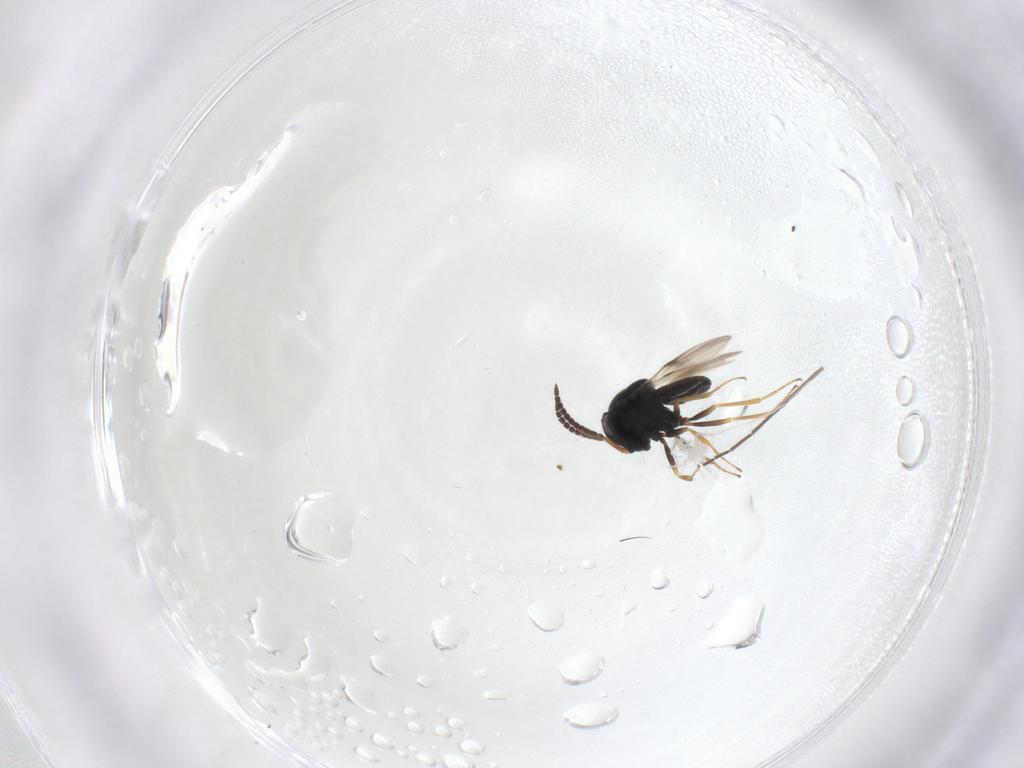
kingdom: Animalia
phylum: Arthropoda
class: Insecta
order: Hymenoptera
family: Scelionidae
